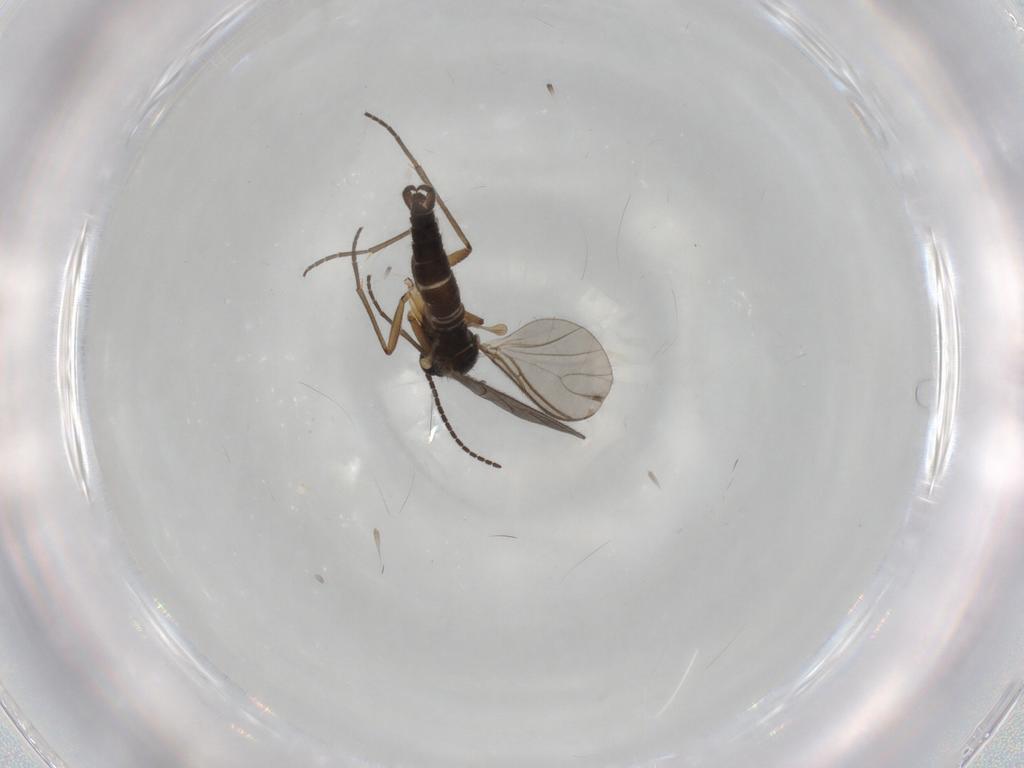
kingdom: Animalia
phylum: Arthropoda
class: Insecta
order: Diptera
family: Sciaridae
